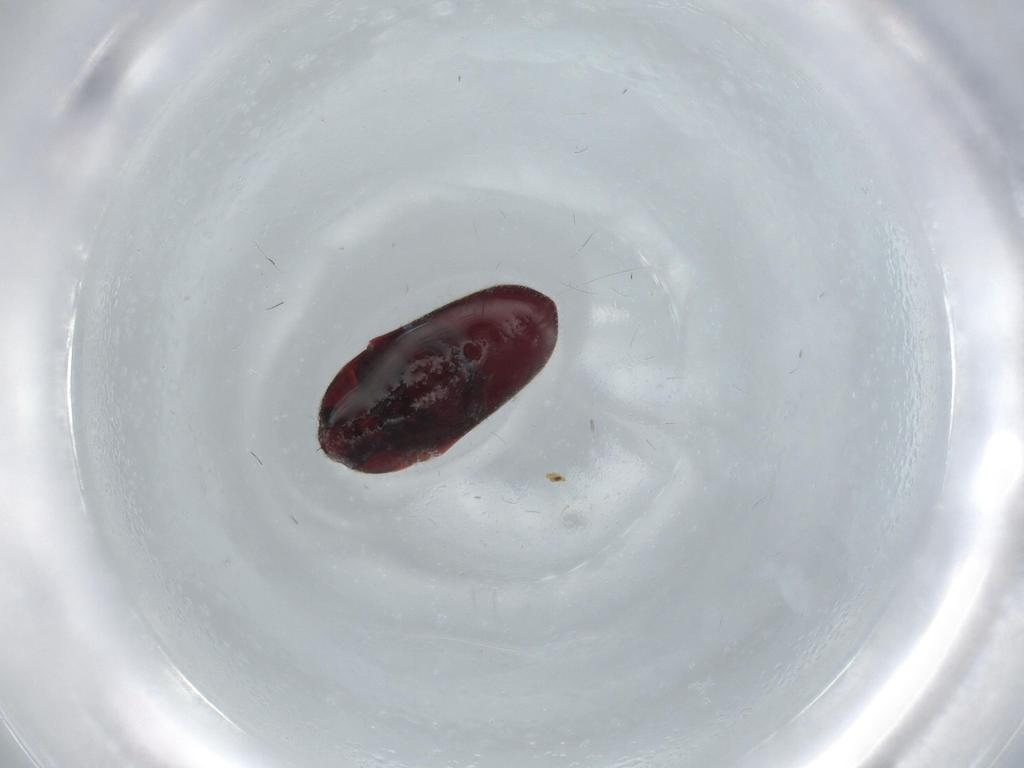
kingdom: Animalia
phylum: Arthropoda
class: Insecta
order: Coleoptera
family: Throscidae
